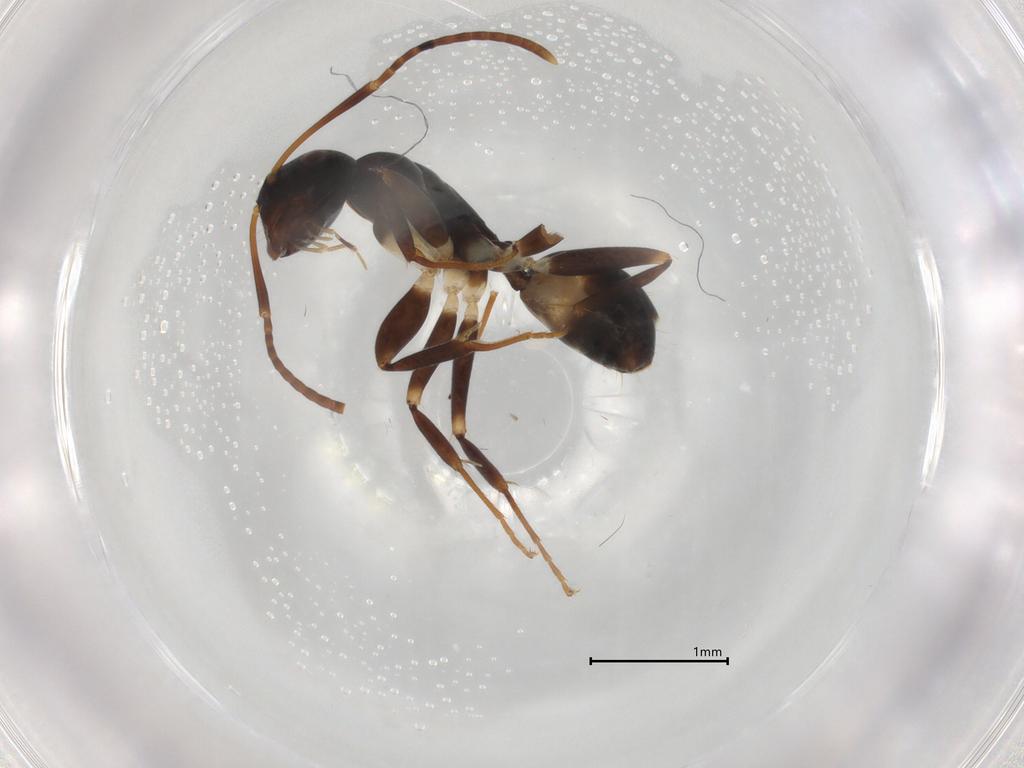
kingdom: Animalia
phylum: Arthropoda
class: Insecta
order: Hymenoptera
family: Formicidae
